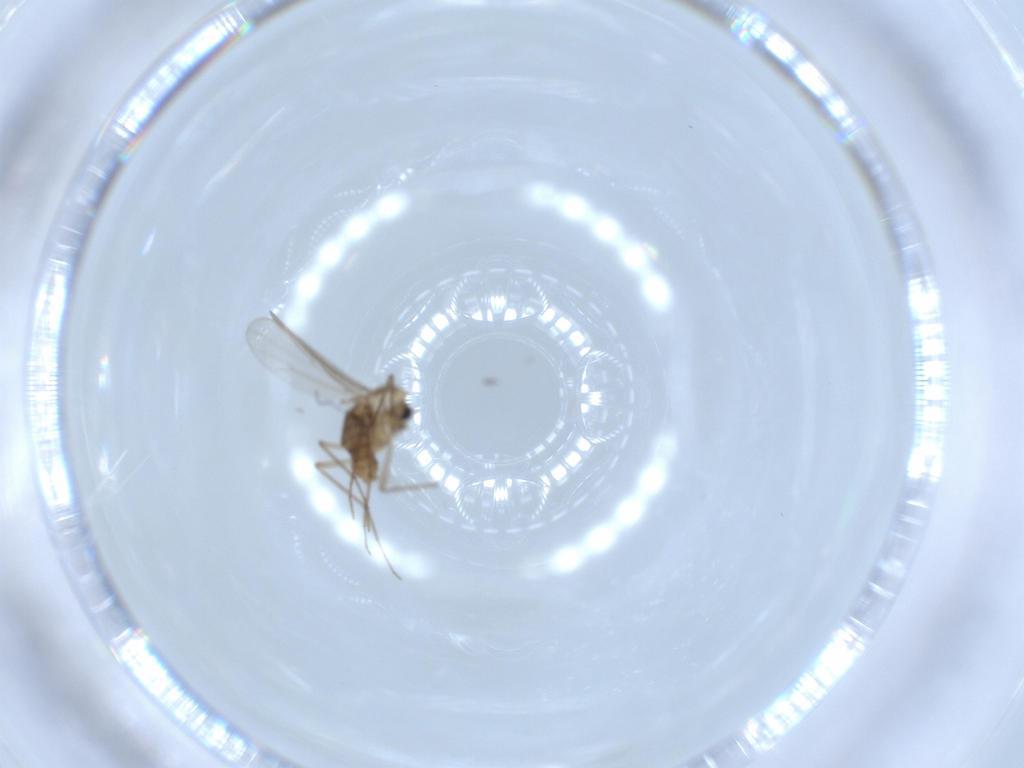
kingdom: Animalia
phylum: Arthropoda
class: Insecta
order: Diptera
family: Chironomidae
